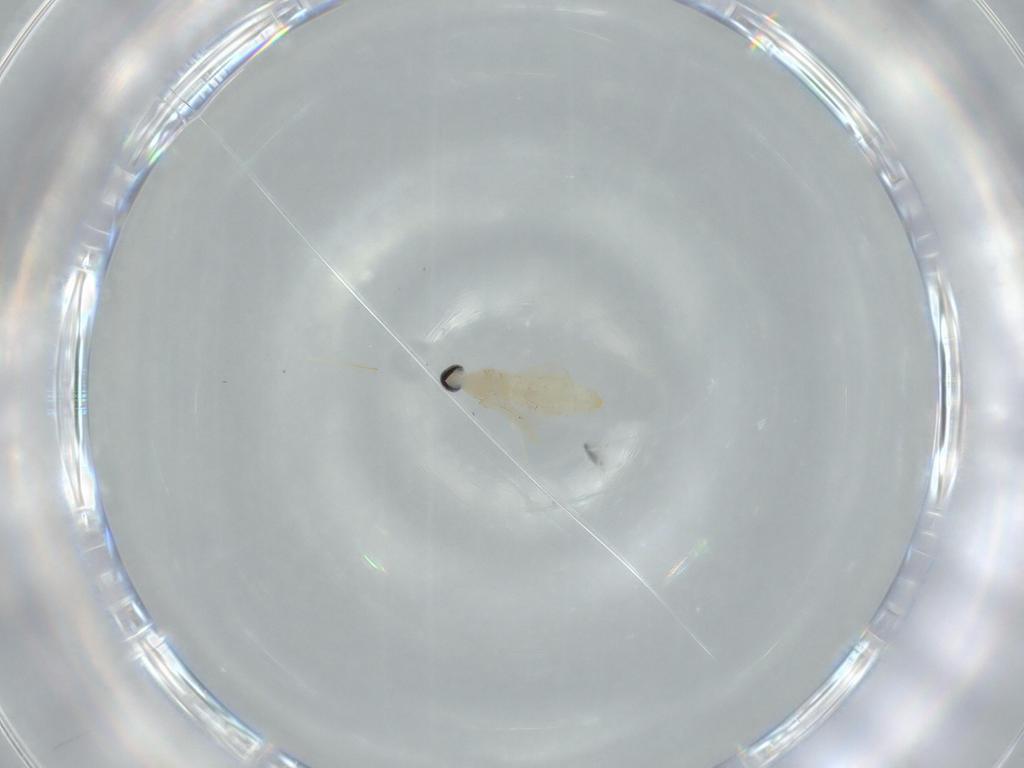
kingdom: Animalia
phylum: Arthropoda
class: Insecta
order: Diptera
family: Cecidomyiidae
